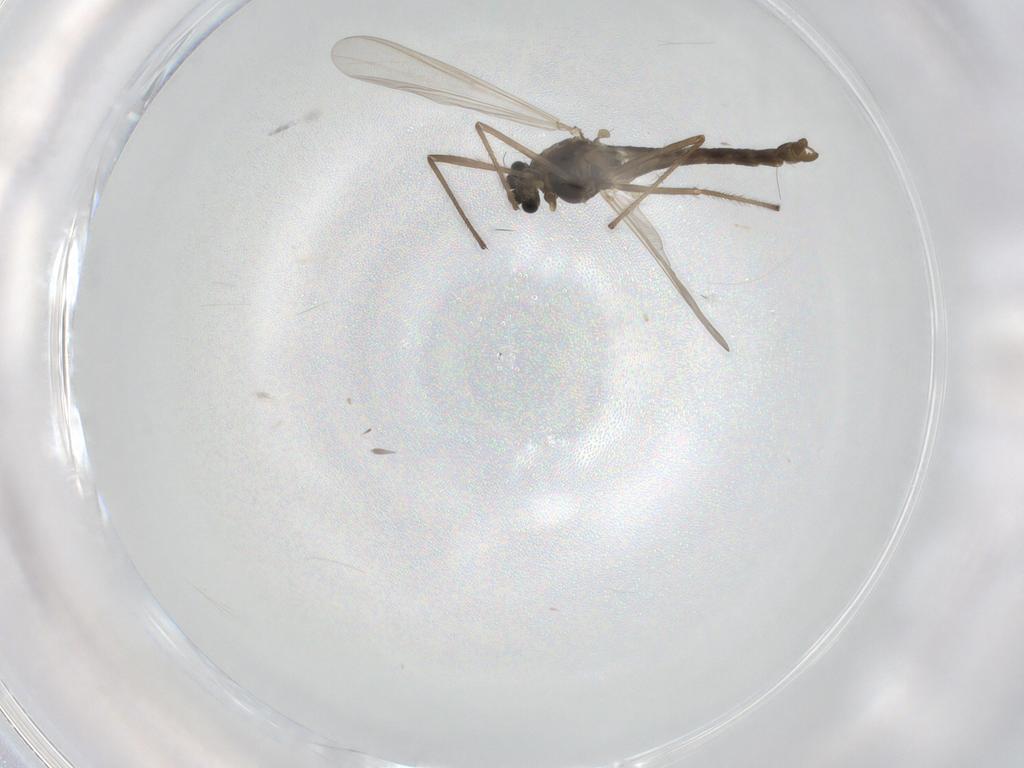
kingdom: Animalia
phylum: Arthropoda
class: Insecta
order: Diptera
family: Chironomidae
